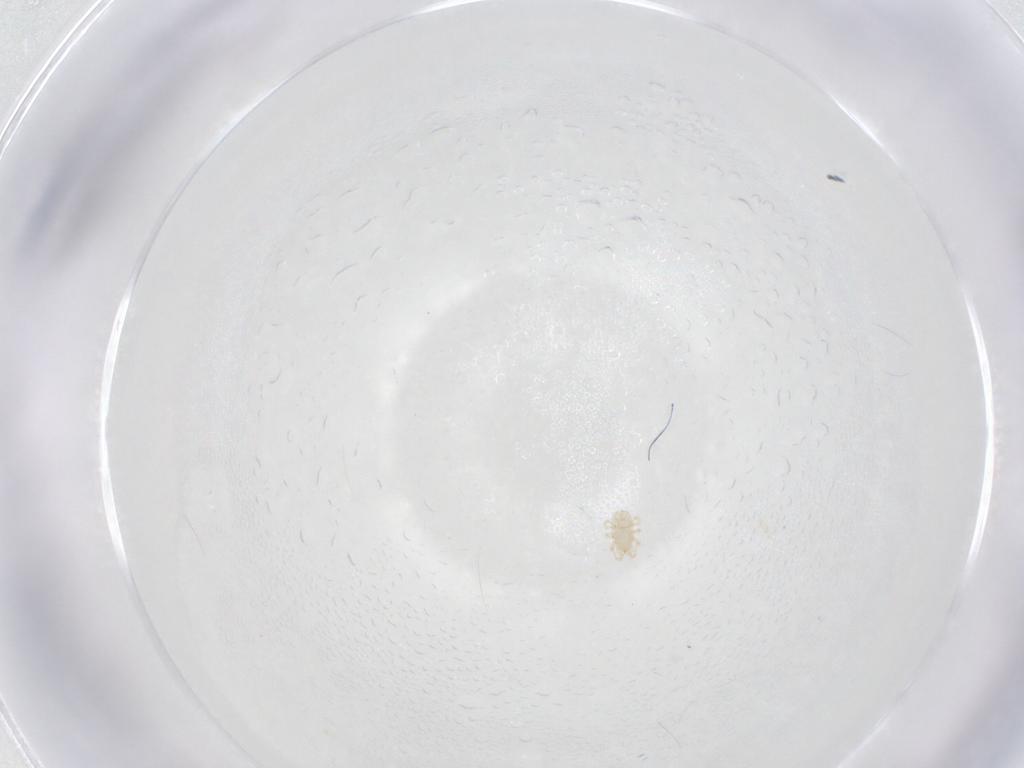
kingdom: Animalia
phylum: Arthropoda
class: Arachnida
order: Mesostigmata
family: Phytoseiidae
